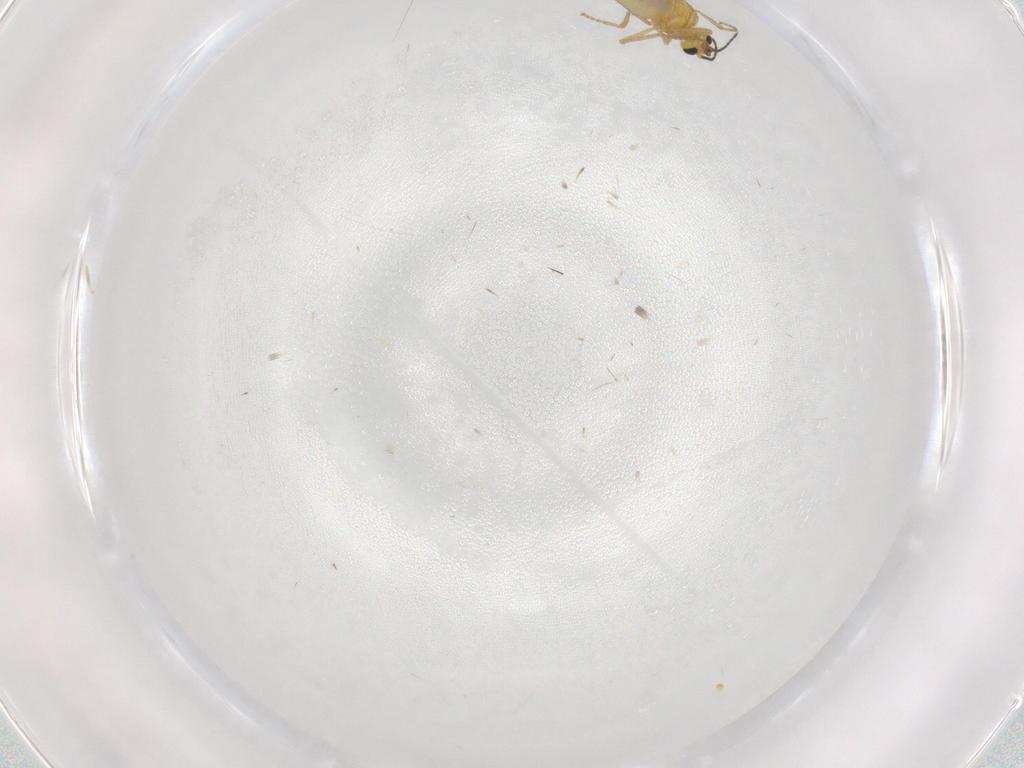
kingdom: Animalia
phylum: Arthropoda
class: Insecta
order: Diptera
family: Ceratopogonidae
